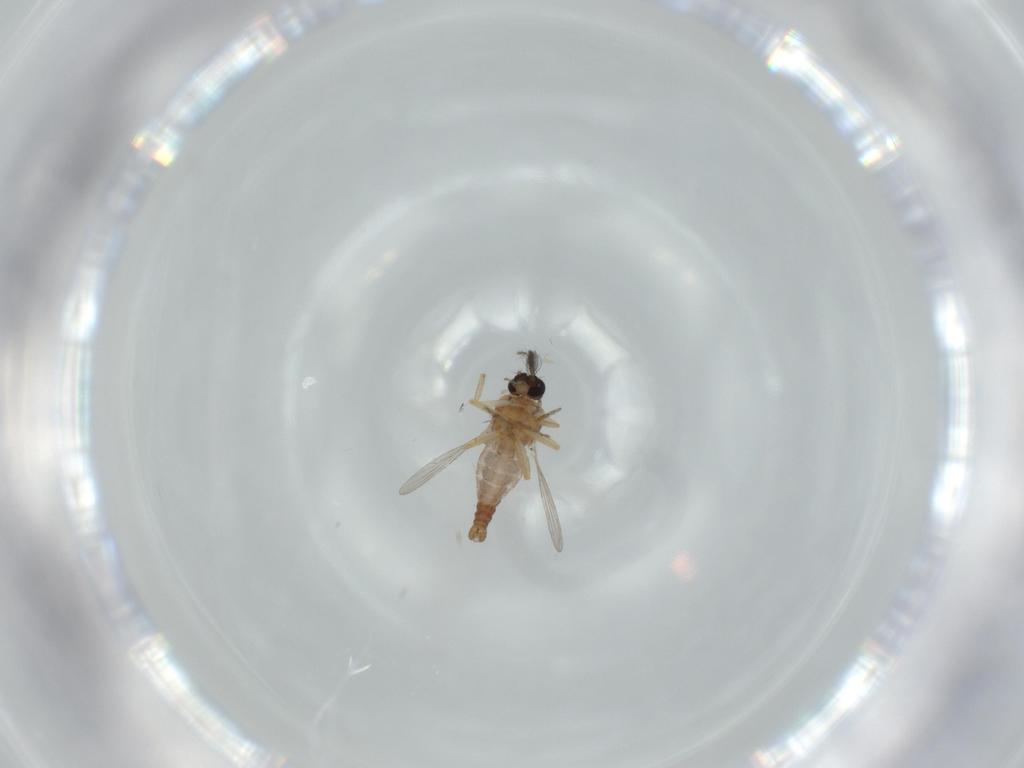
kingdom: Animalia
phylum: Arthropoda
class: Insecta
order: Diptera
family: Ceratopogonidae
